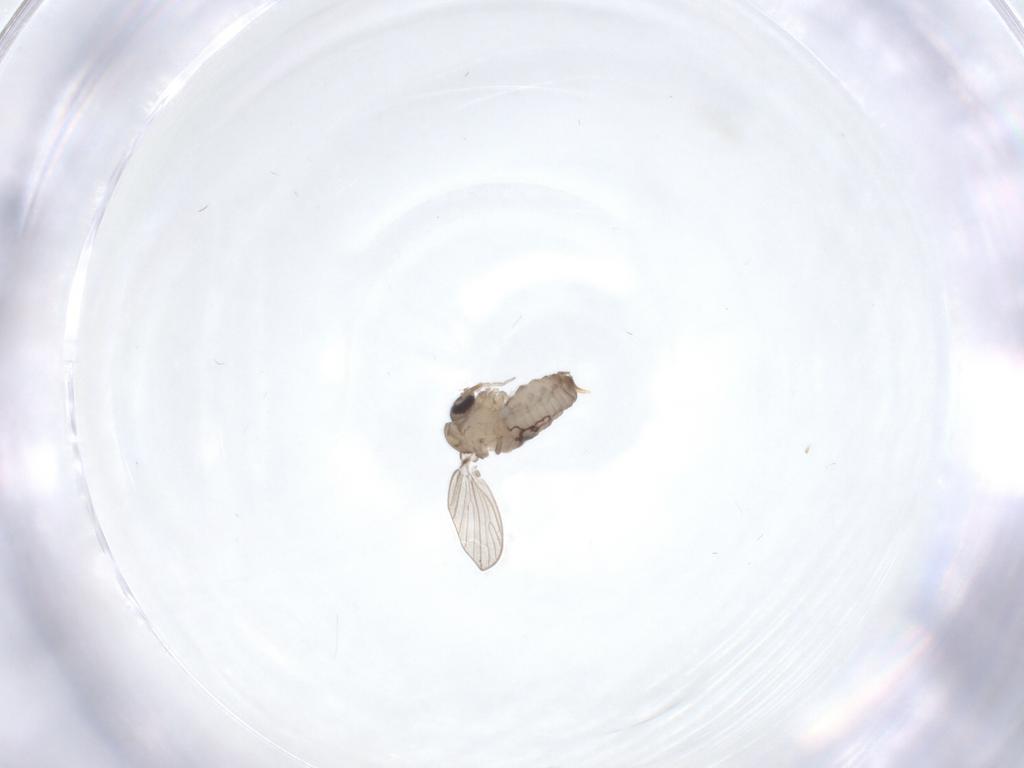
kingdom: Animalia
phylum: Arthropoda
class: Insecta
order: Diptera
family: Psychodidae
